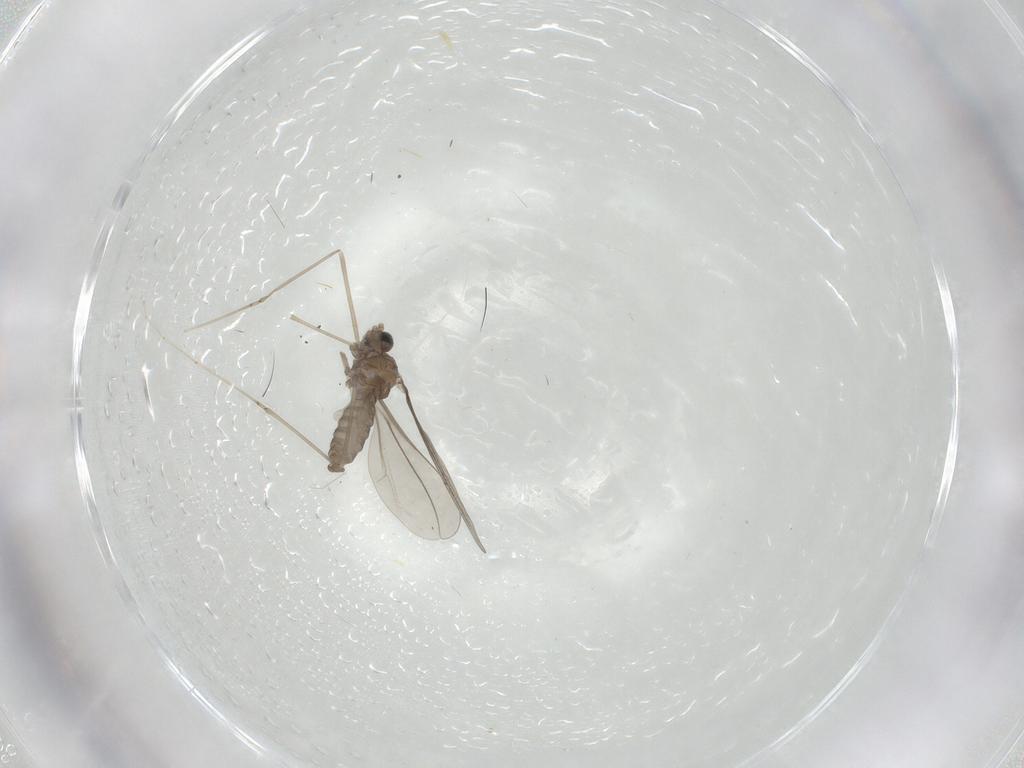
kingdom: Animalia
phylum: Arthropoda
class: Insecta
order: Diptera
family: Cecidomyiidae
